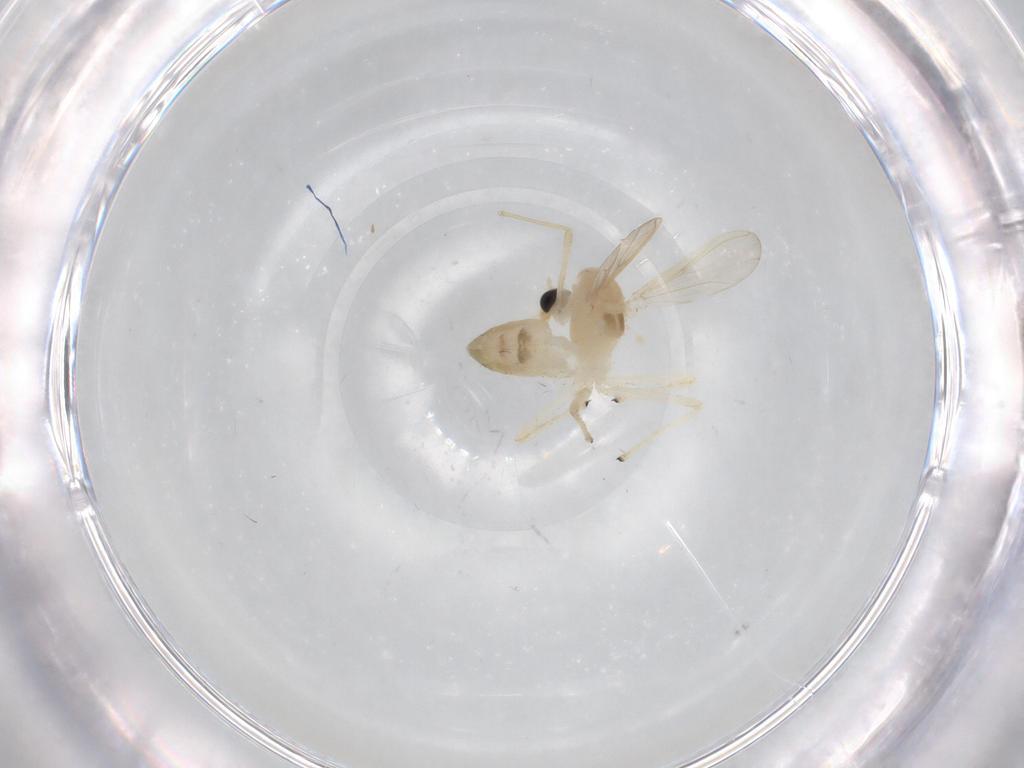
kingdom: Animalia
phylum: Arthropoda
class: Insecta
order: Diptera
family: Chironomidae
